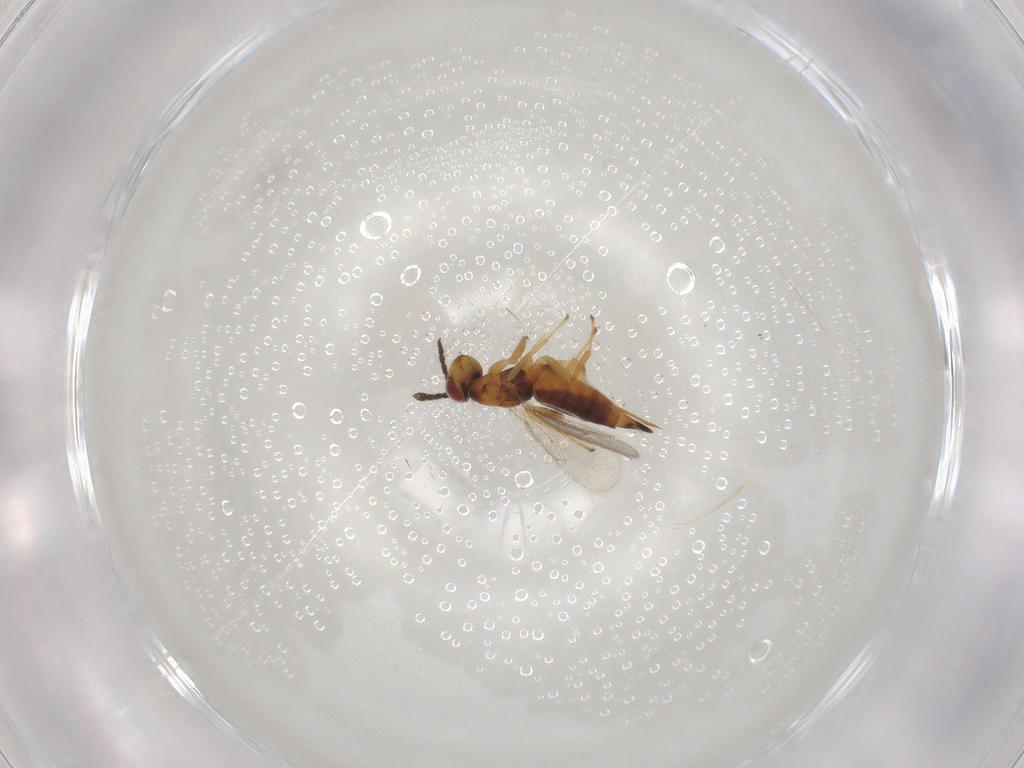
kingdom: Animalia
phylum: Arthropoda
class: Insecta
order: Hymenoptera
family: Eulophidae
